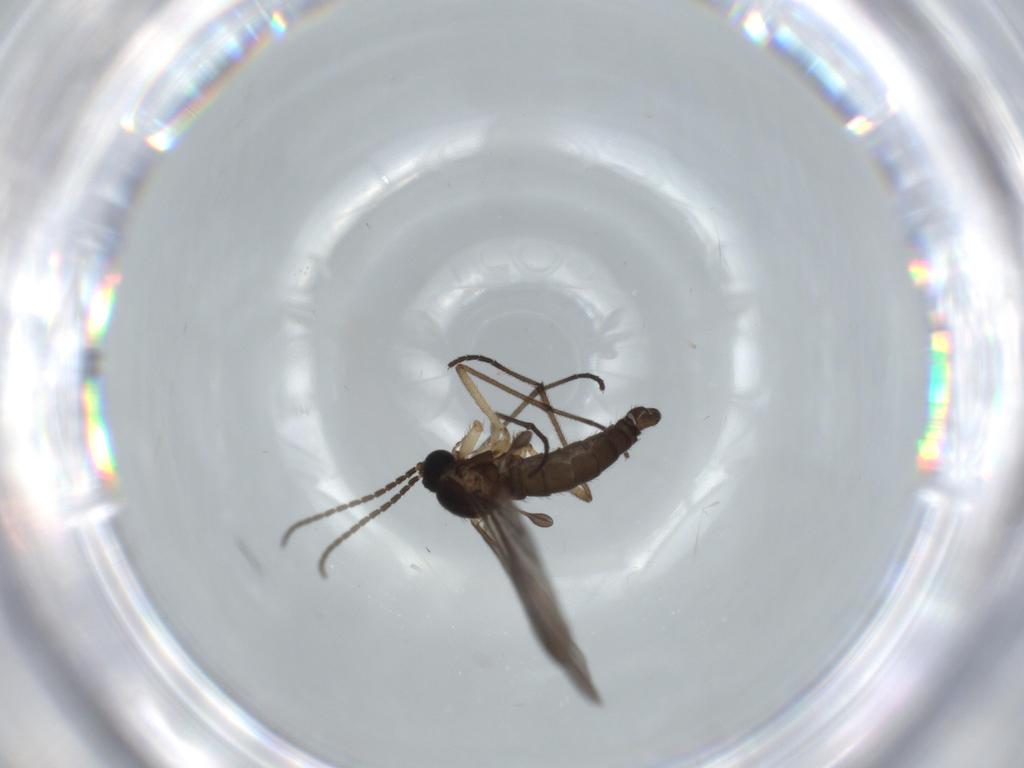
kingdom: Animalia
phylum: Arthropoda
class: Insecta
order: Diptera
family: Sciaridae
